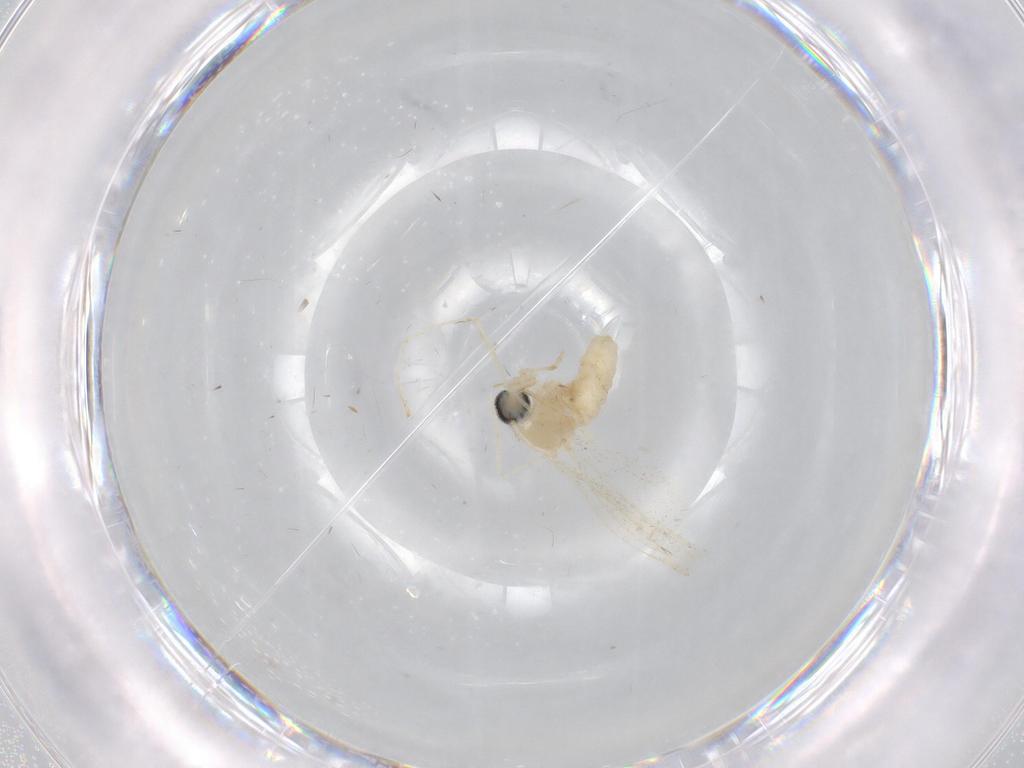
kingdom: Animalia
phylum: Arthropoda
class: Insecta
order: Diptera
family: Cecidomyiidae
